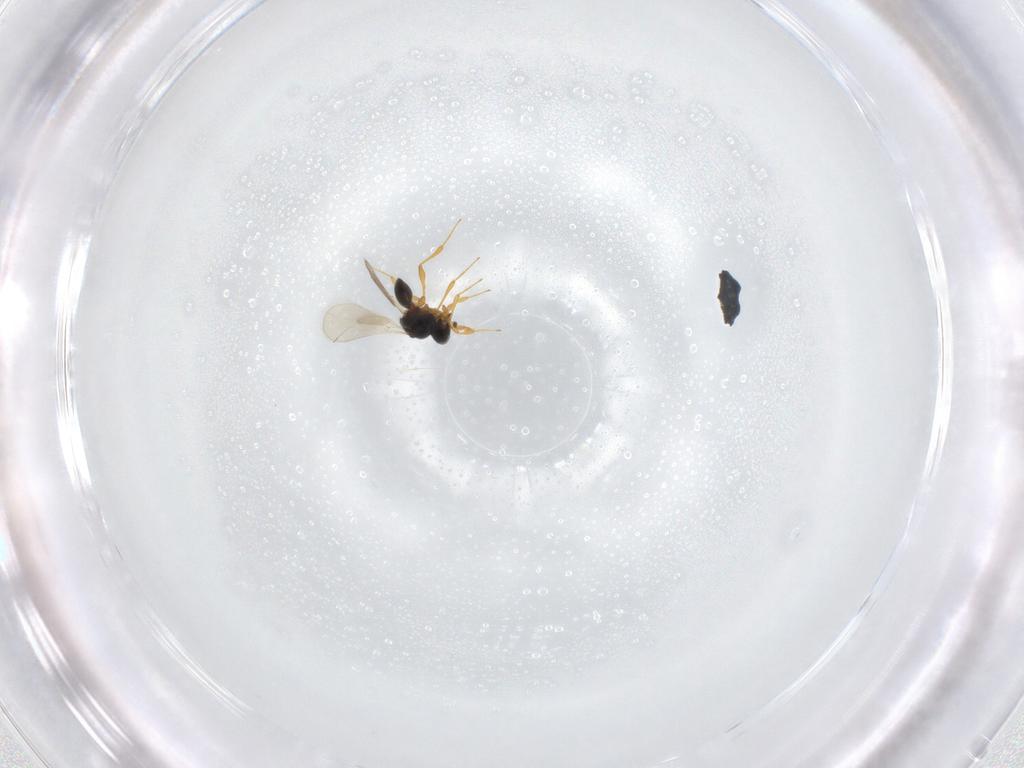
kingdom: Animalia
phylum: Arthropoda
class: Insecta
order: Hymenoptera
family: Platygastridae
